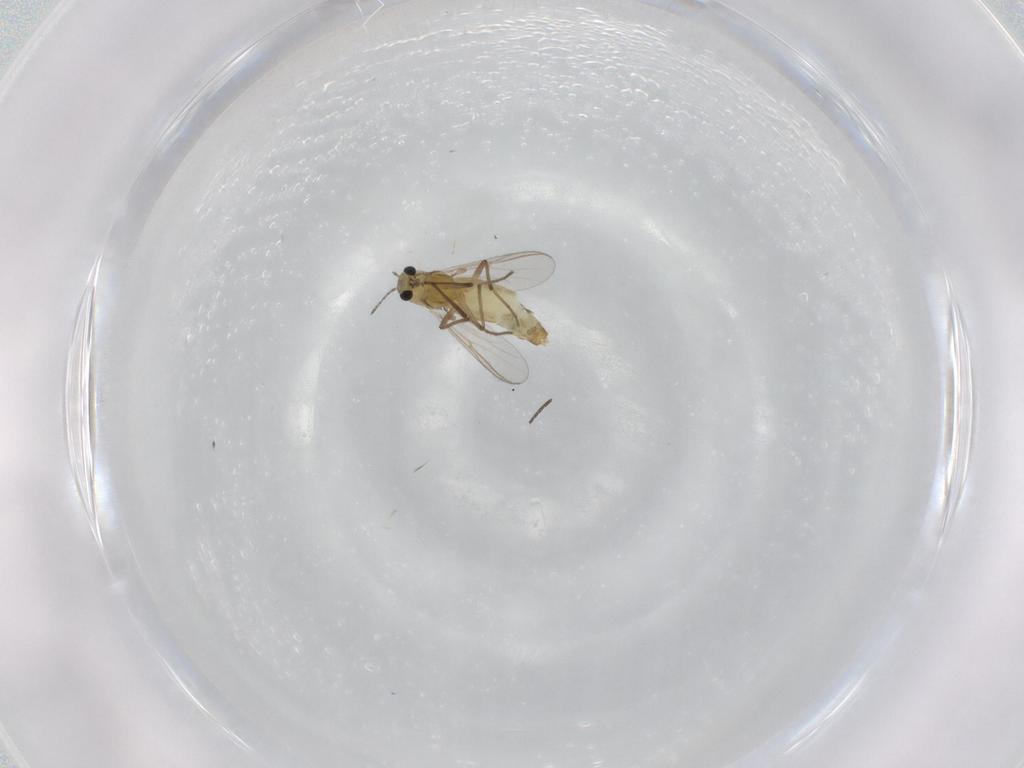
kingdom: Animalia
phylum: Arthropoda
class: Insecta
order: Diptera
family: Chironomidae
